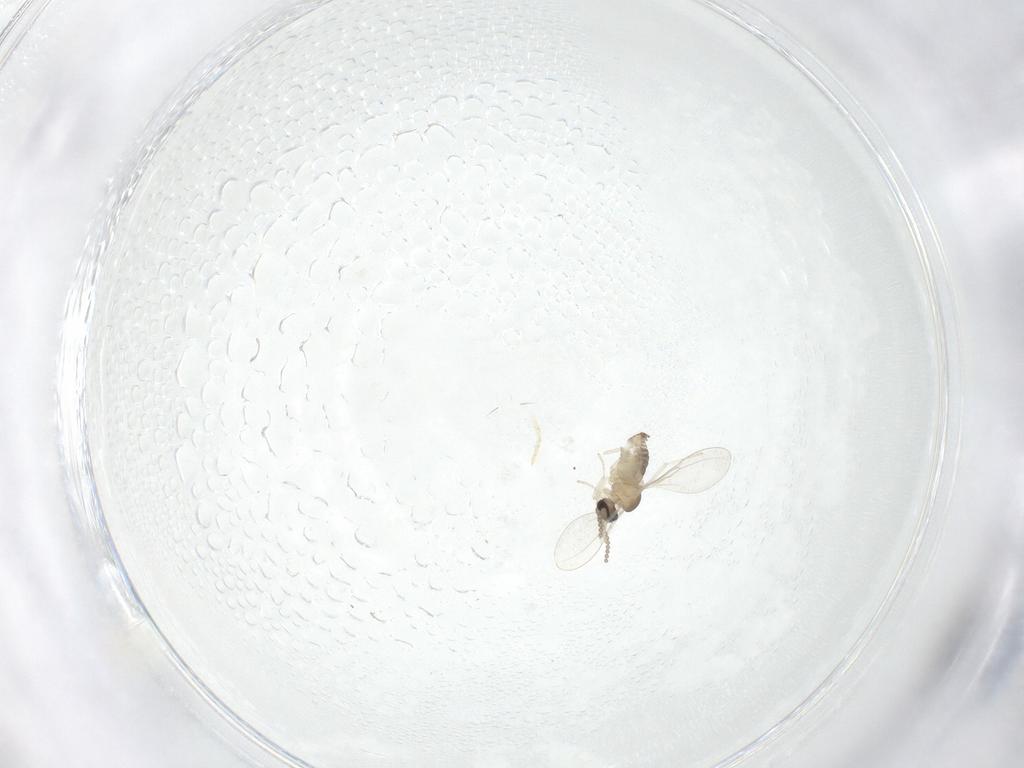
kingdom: Animalia
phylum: Arthropoda
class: Insecta
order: Diptera
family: Cecidomyiidae
